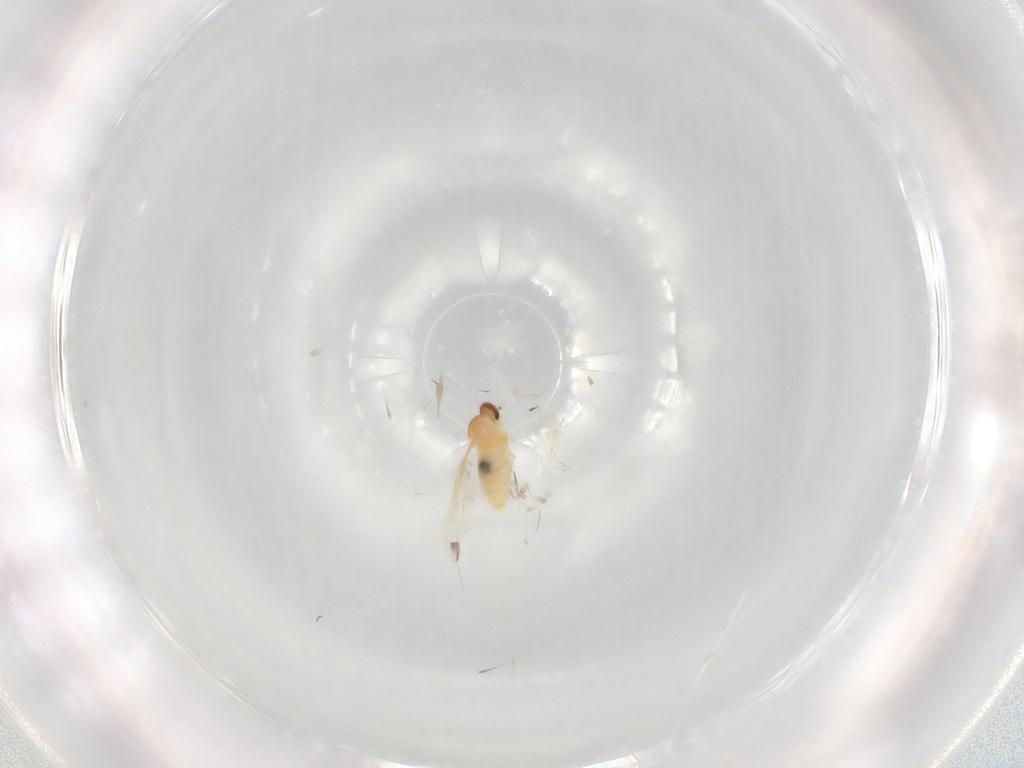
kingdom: Animalia
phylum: Arthropoda
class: Insecta
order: Diptera
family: Cecidomyiidae
